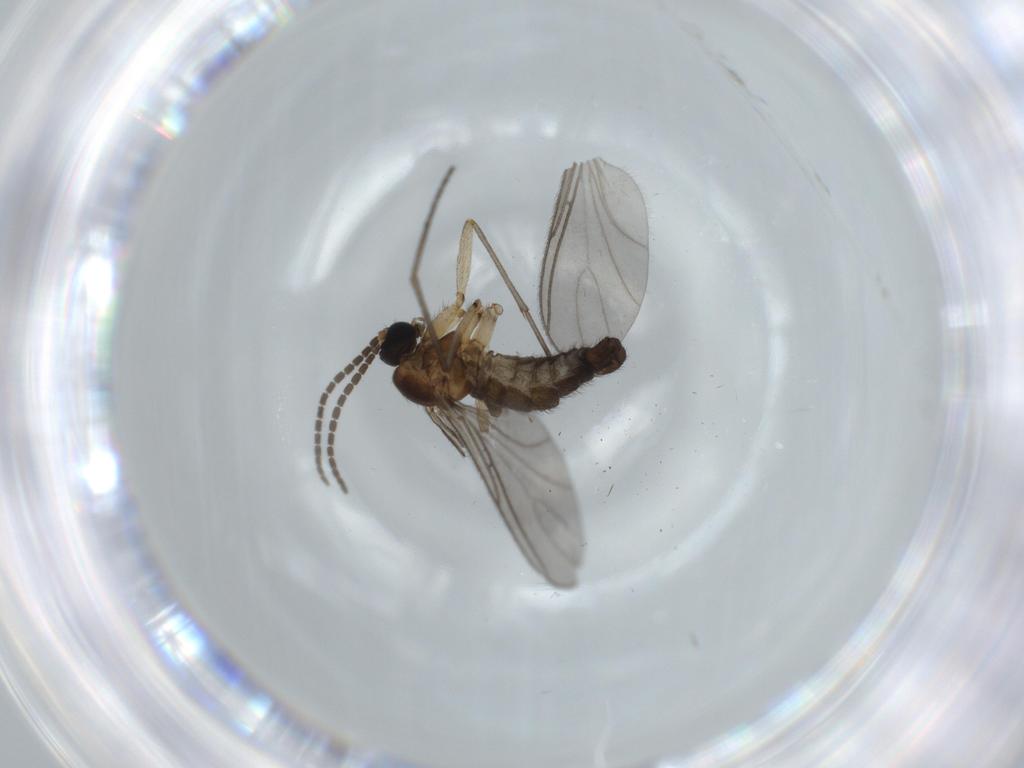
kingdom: Animalia
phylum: Arthropoda
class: Insecta
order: Diptera
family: Sciaridae
